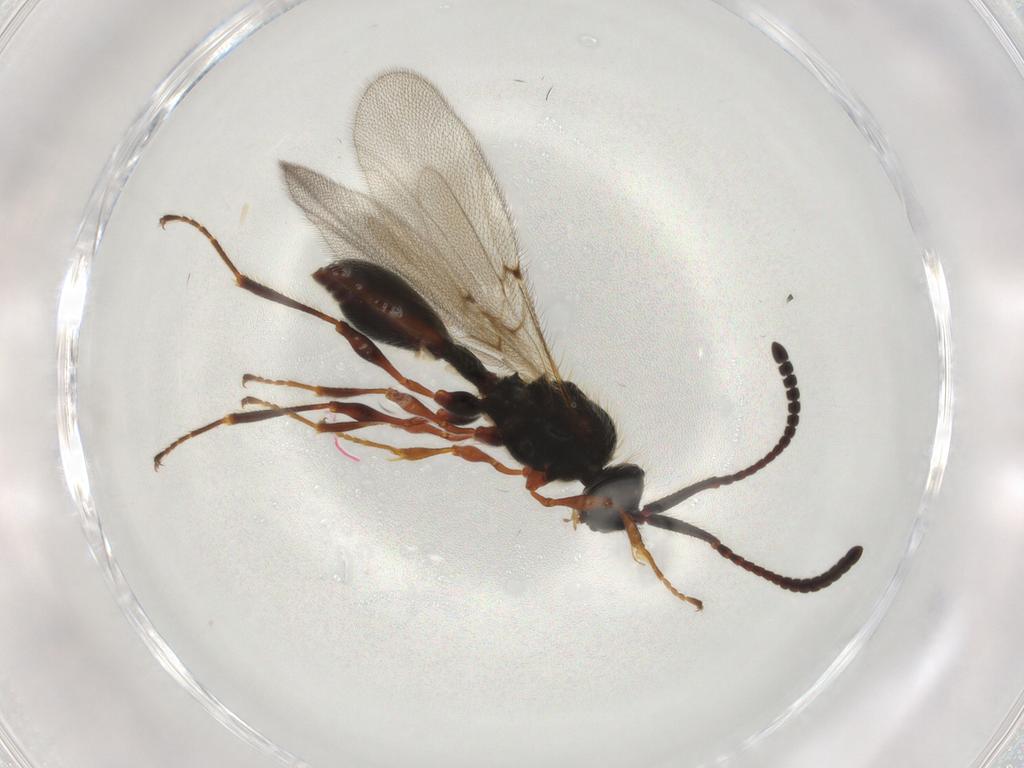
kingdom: Animalia
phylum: Arthropoda
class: Insecta
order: Hymenoptera
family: Diapriidae
